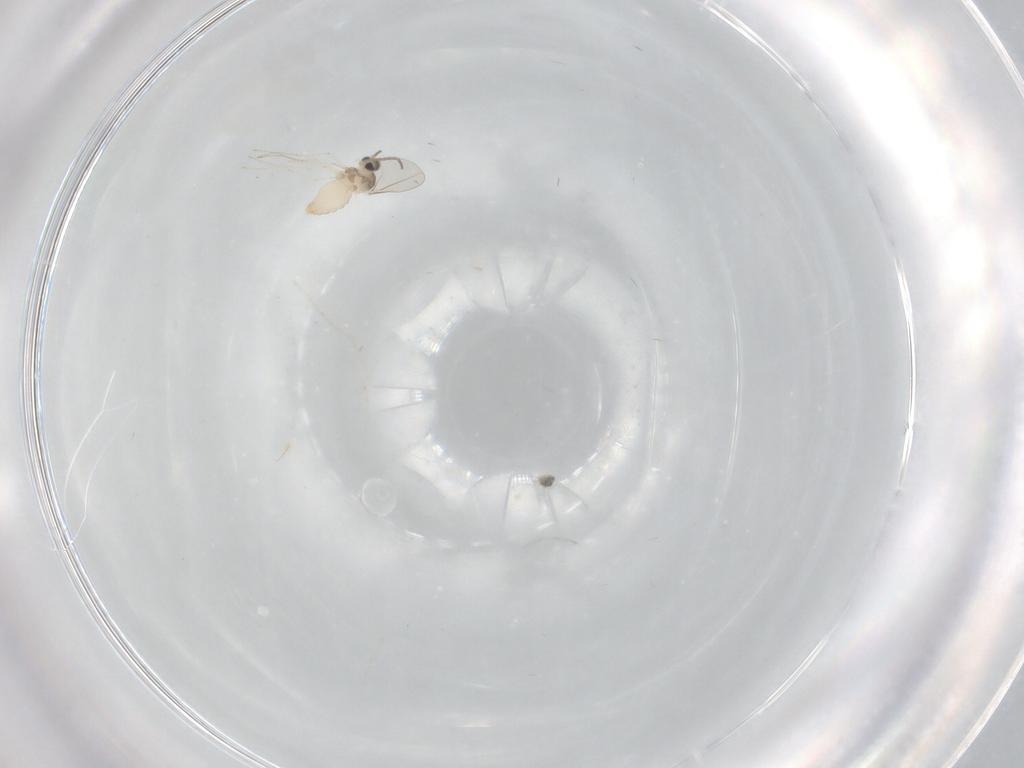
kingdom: Animalia
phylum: Arthropoda
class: Insecta
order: Diptera
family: Cecidomyiidae
